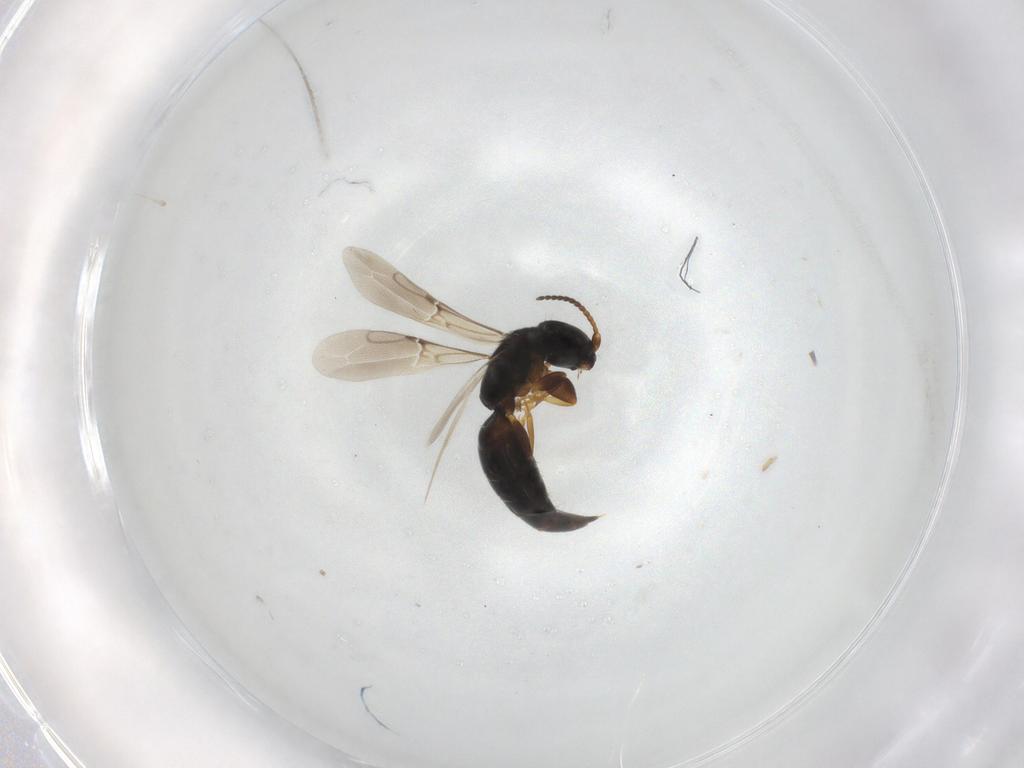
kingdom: Animalia
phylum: Arthropoda
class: Insecta
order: Hymenoptera
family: Bethylidae
